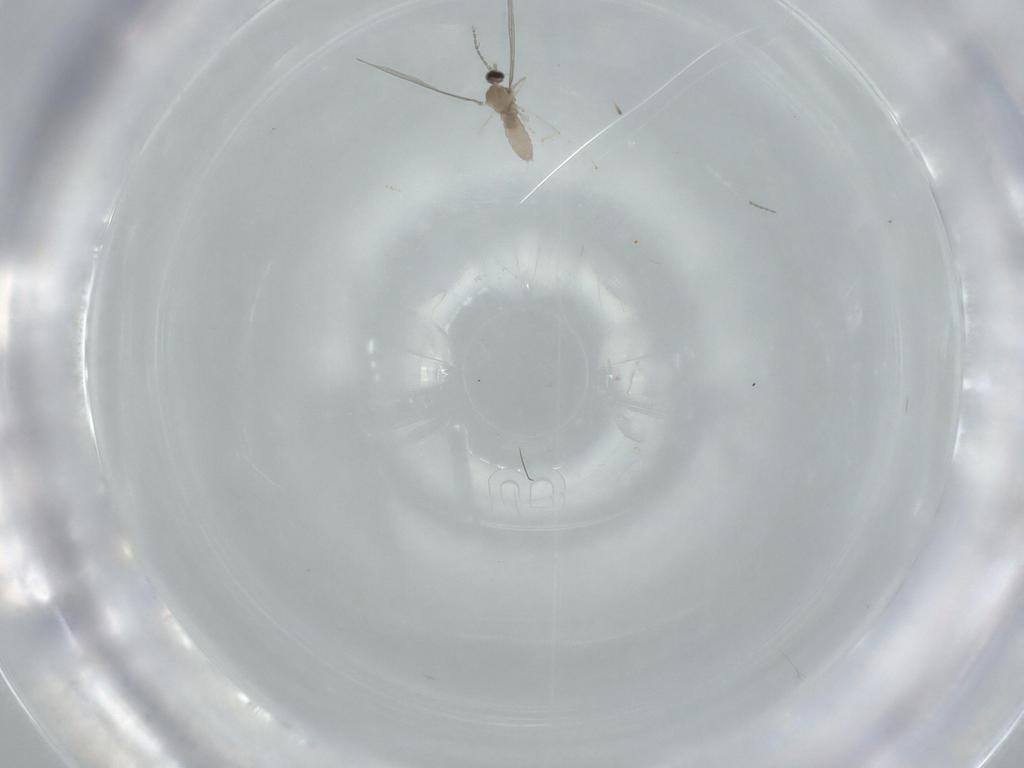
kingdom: Animalia
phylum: Arthropoda
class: Insecta
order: Diptera
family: Cecidomyiidae
